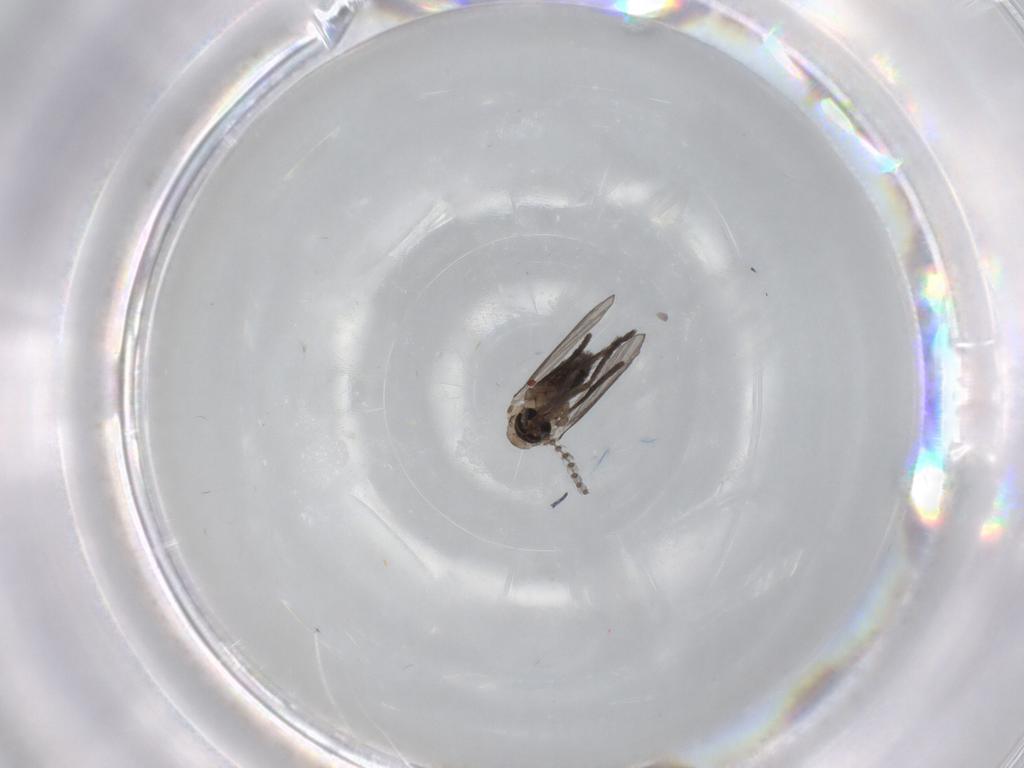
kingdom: Animalia
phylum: Arthropoda
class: Insecta
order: Diptera
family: Psychodidae
